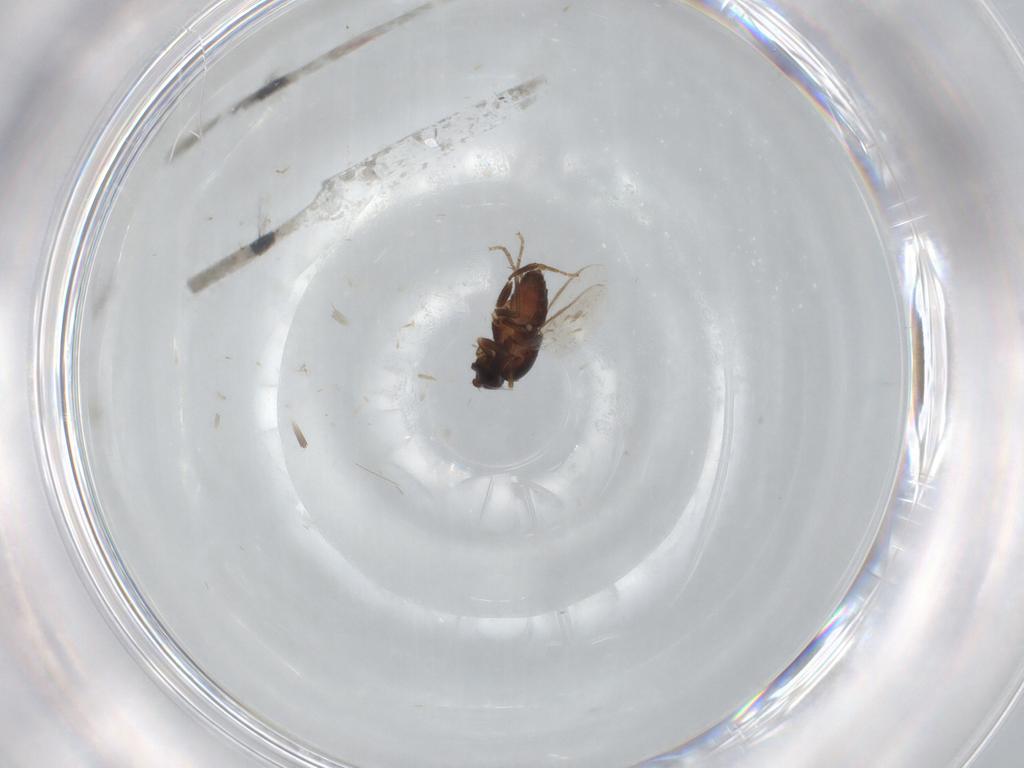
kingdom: Animalia
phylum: Arthropoda
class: Insecta
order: Diptera
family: Sphaeroceridae
